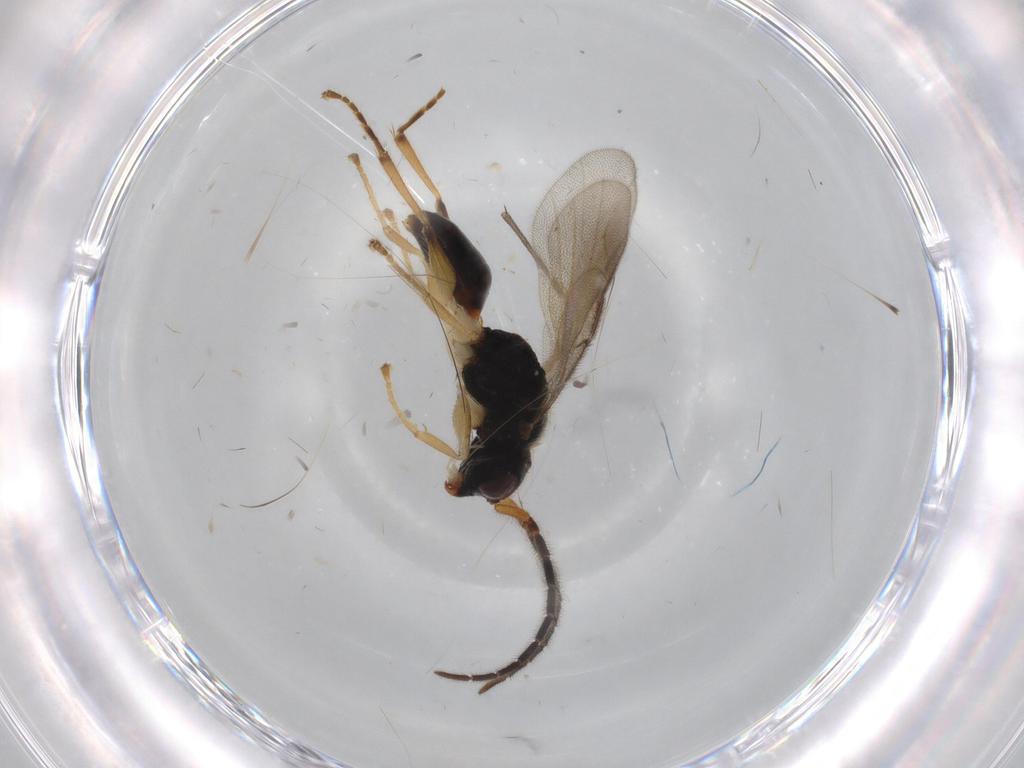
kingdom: Animalia
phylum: Arthropoda
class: Insecta
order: Hymenoptera
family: Dryinidae
